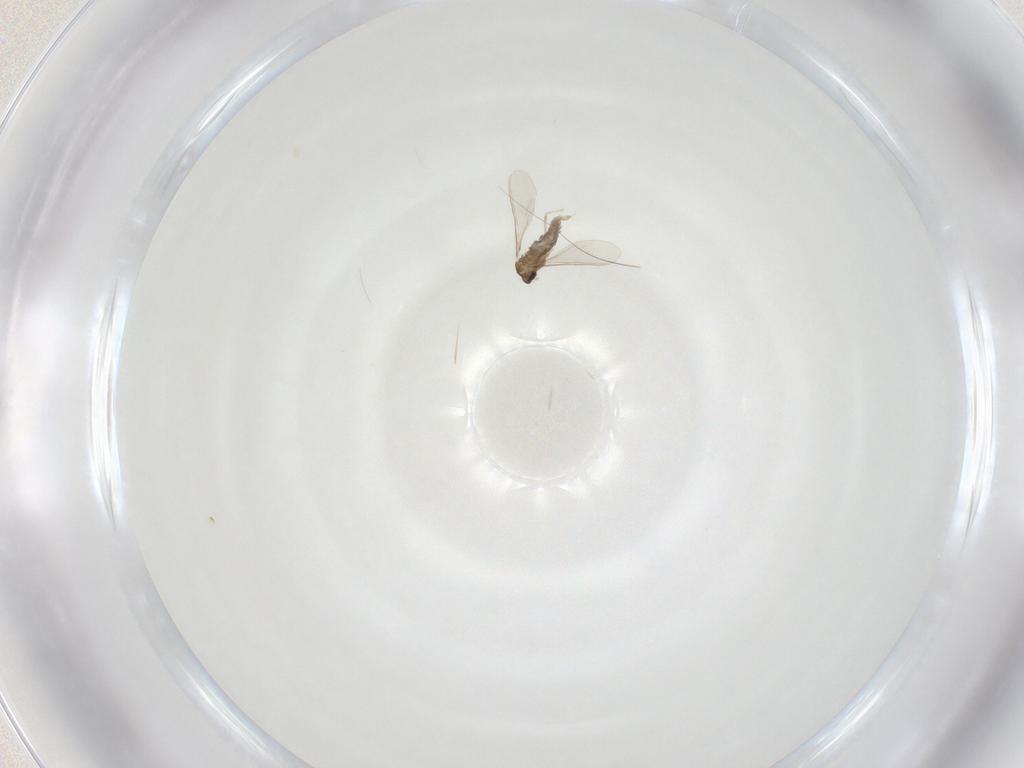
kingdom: Animalia
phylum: Arthropoda
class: Insecta
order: Diptera
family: Cecidomyiidae
